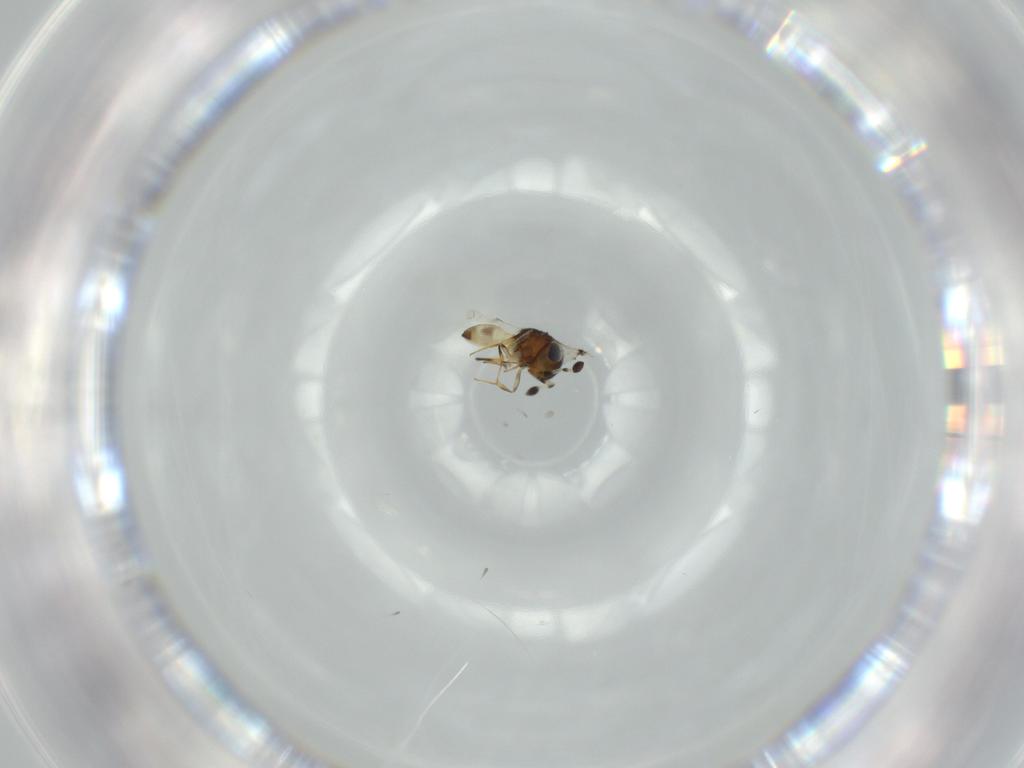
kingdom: Animalia
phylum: Arthropoda
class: Arachnida
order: Araneae
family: Pholcidae
